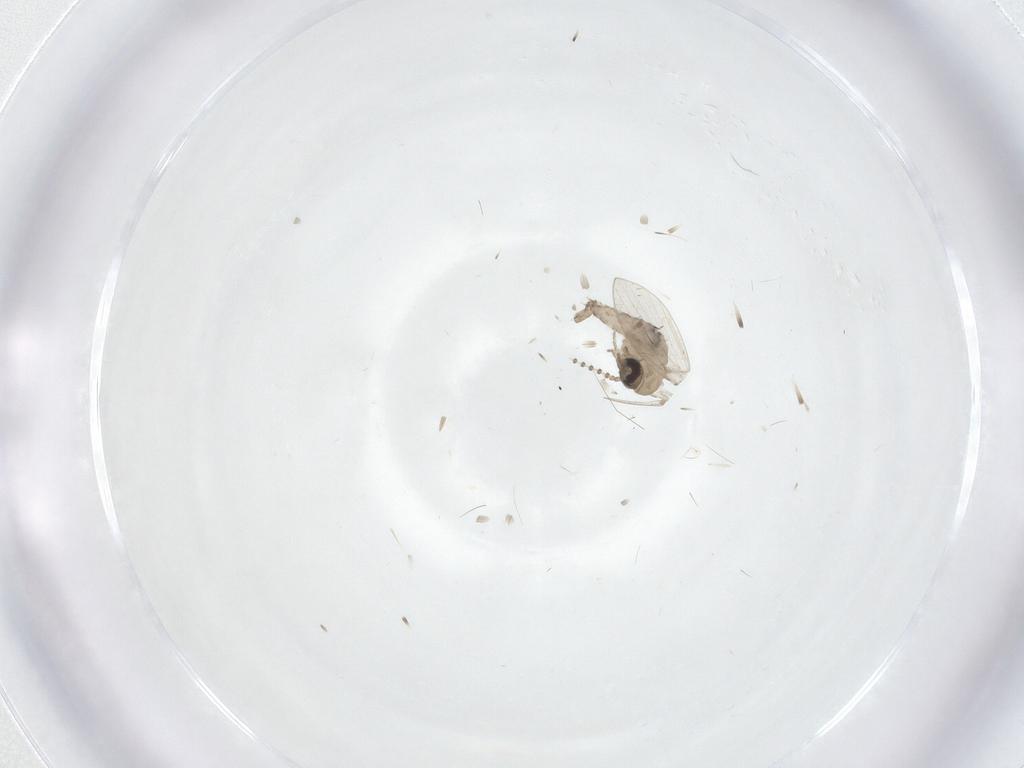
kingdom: Animalia
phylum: Arthropoda
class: Insecta
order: Diptera
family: Psychodidae
